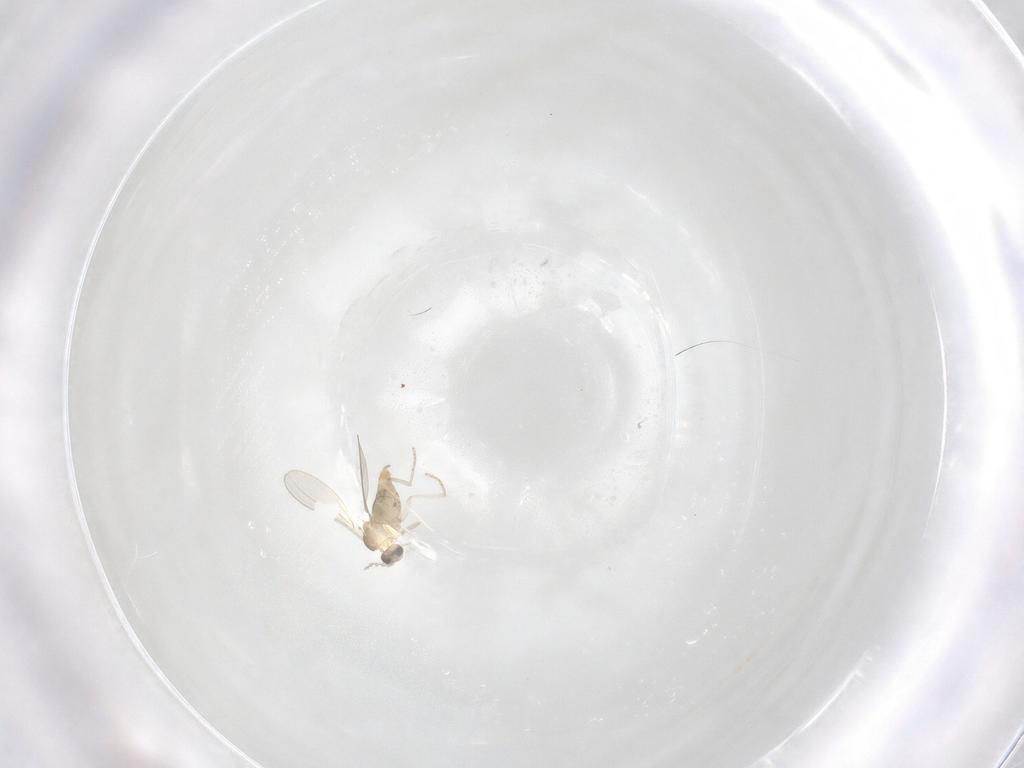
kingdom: Animalia
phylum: Arthropoda
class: Insecta
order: Diptera
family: Cecidomyiidae
